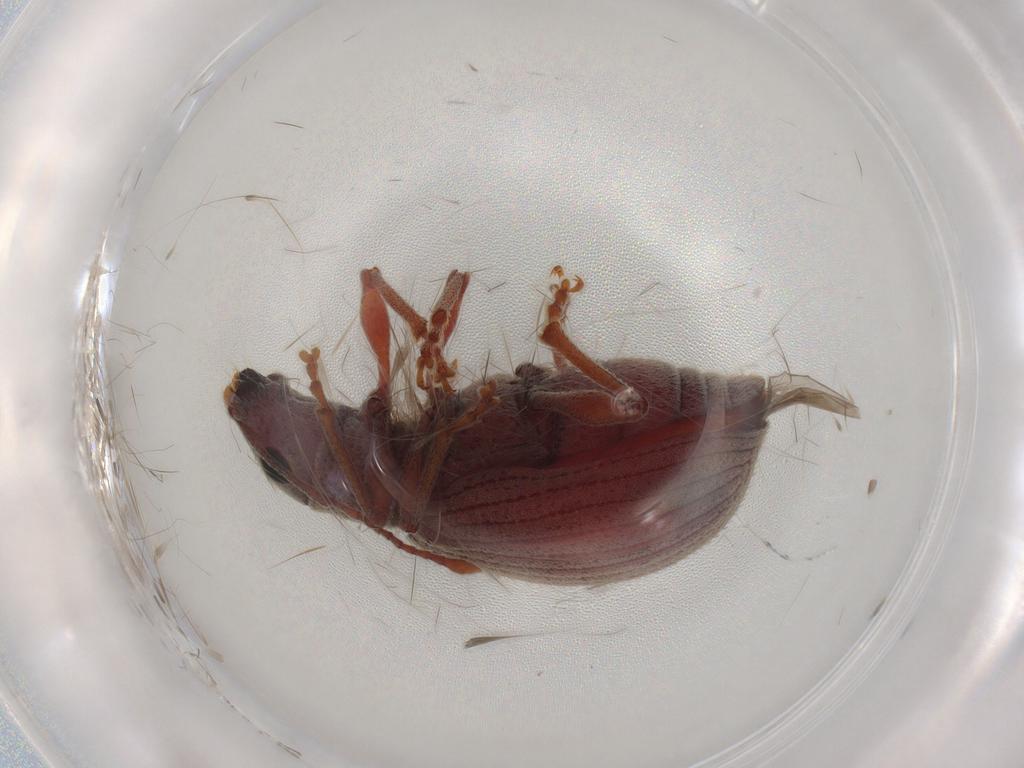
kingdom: Animalia
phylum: Arthropoda
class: Insecta
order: Coleoptera
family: Curculionidae
